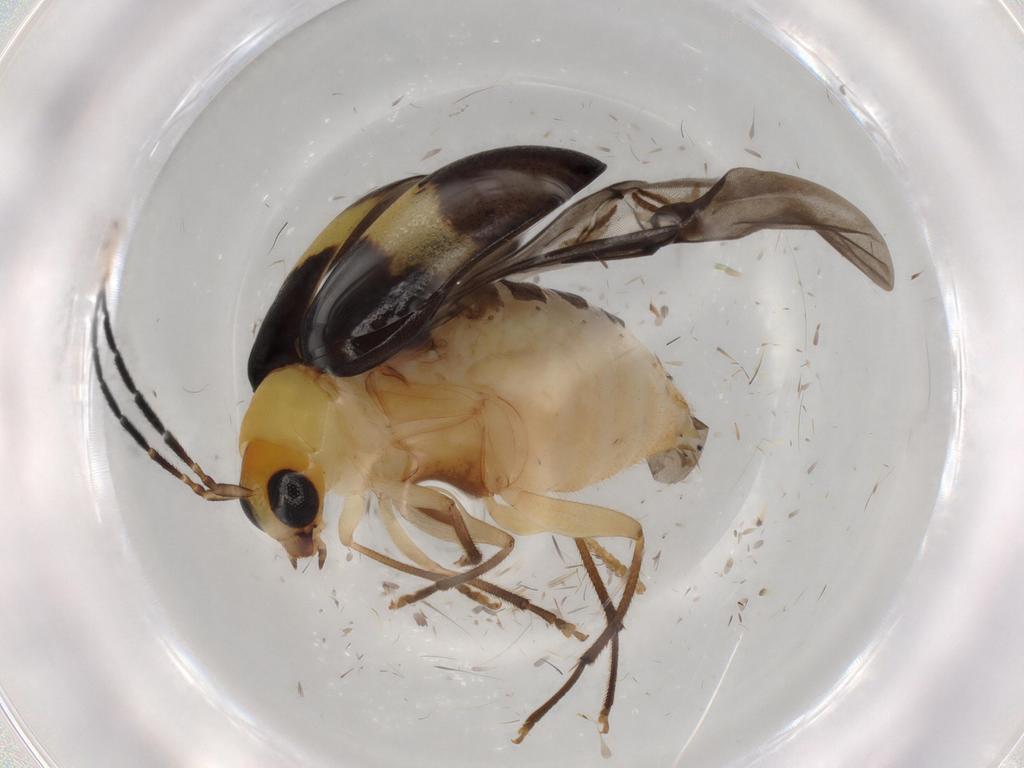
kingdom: Animalia
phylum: Arthropoda
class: Insecta
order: Coleoptera
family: Chrysomelidae
